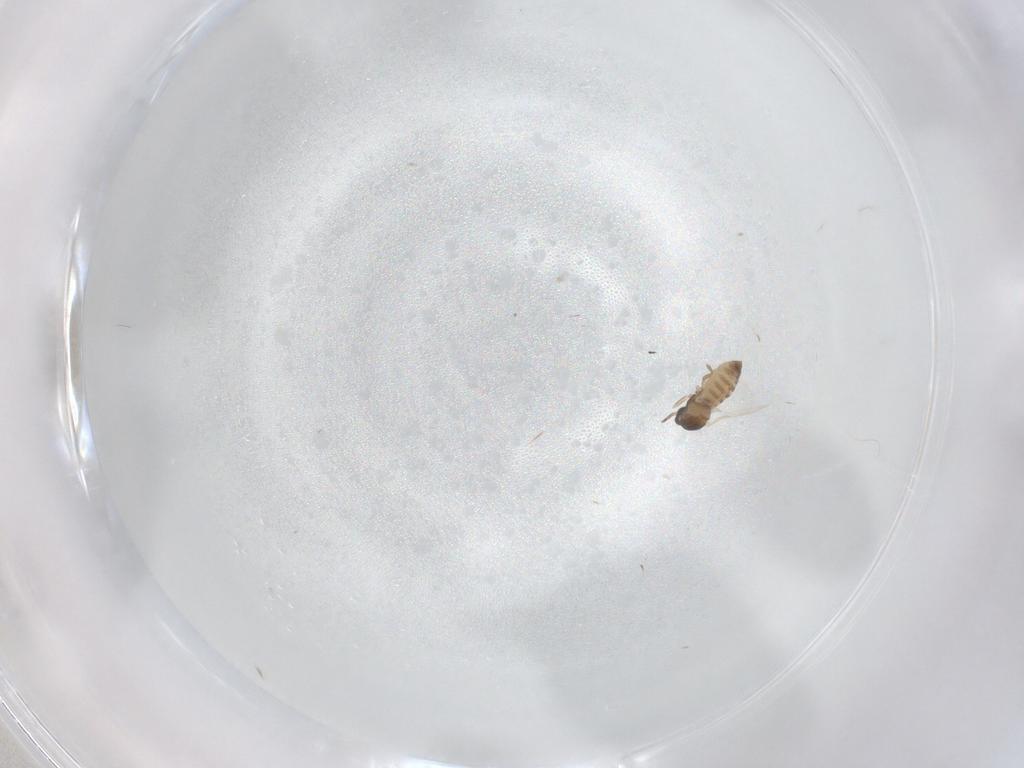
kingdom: Animalia
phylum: Arthropoda
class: Insecta
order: Diptera
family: Cecidomyiidae
